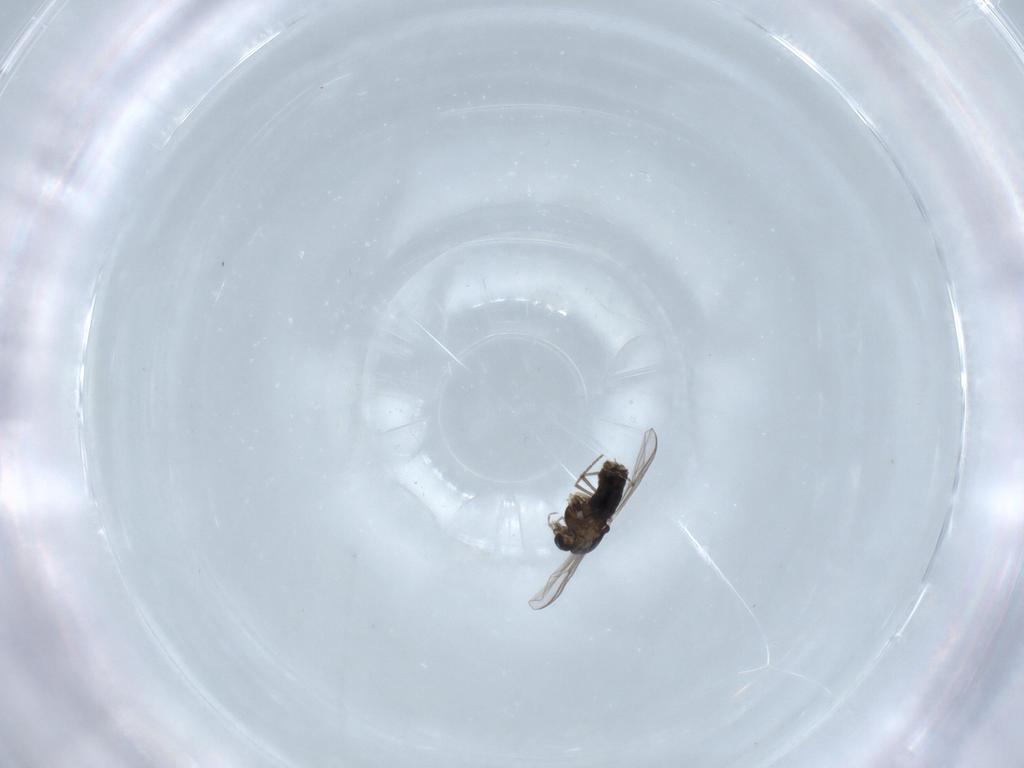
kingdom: Animalia
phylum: Arthropoda
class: Insecta
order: Diptera
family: Chironomidae
